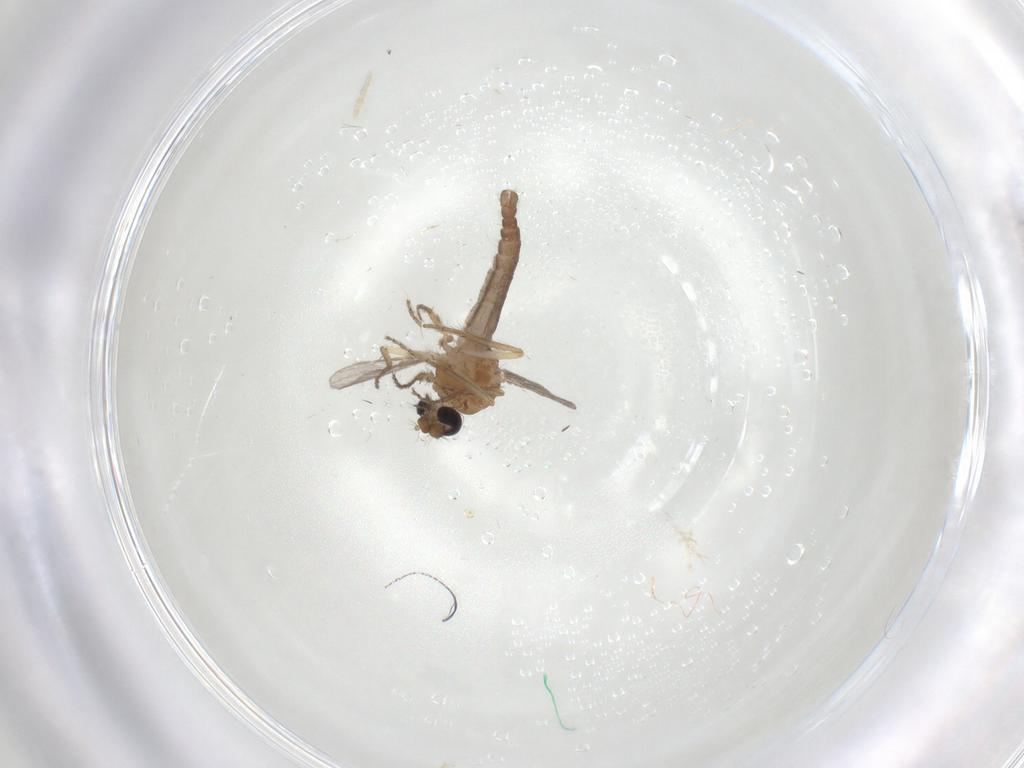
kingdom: Animalia
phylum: Arthropoda
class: Insecta
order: Diptera
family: Ceratopogonidae
